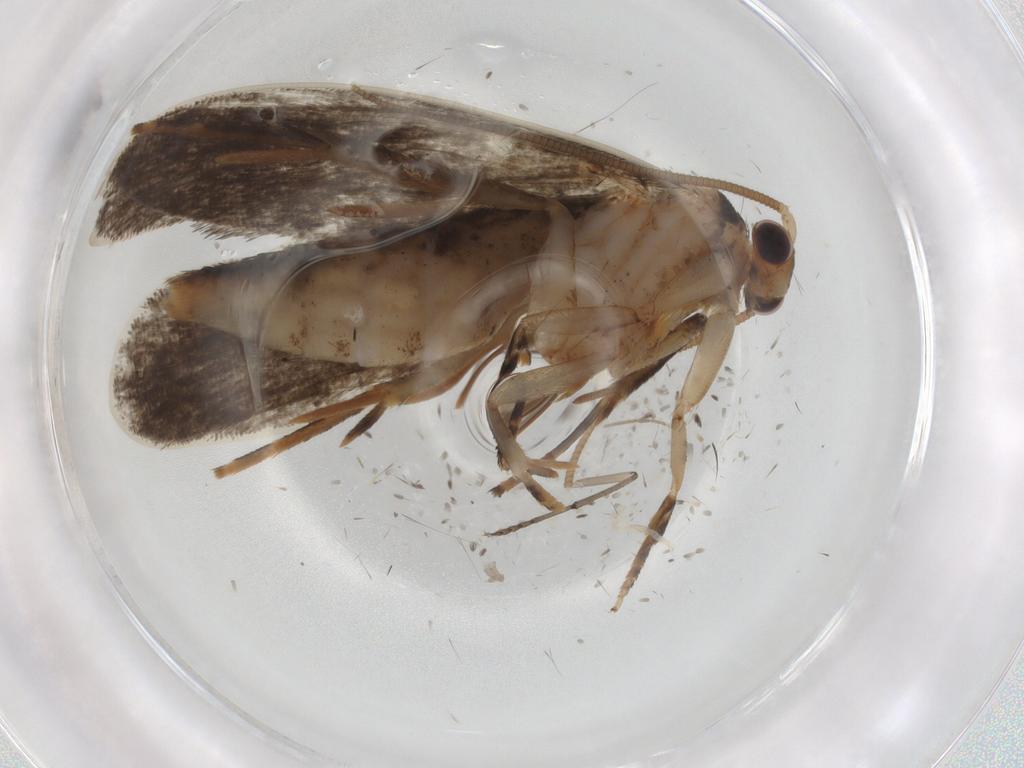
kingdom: Animalia
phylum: Arthropoda
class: Insecta
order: Lepidoptera
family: Tineidae
